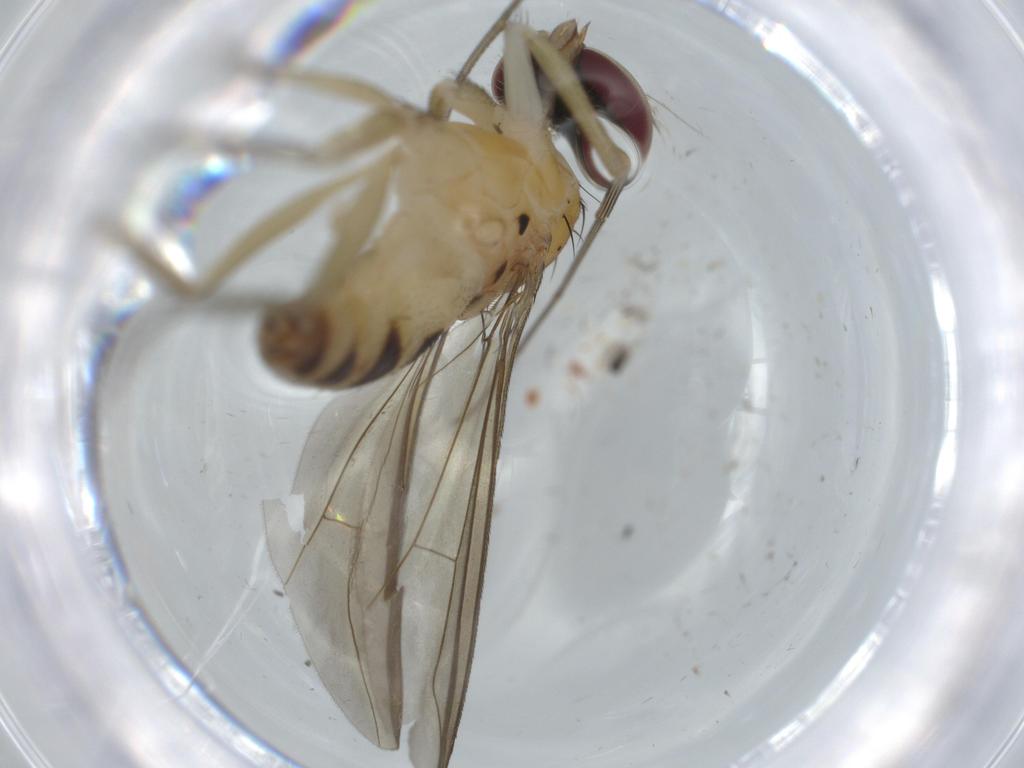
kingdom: Animalia
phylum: Arthropoda
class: Insecta
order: Diptera
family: Dolichopodidae
